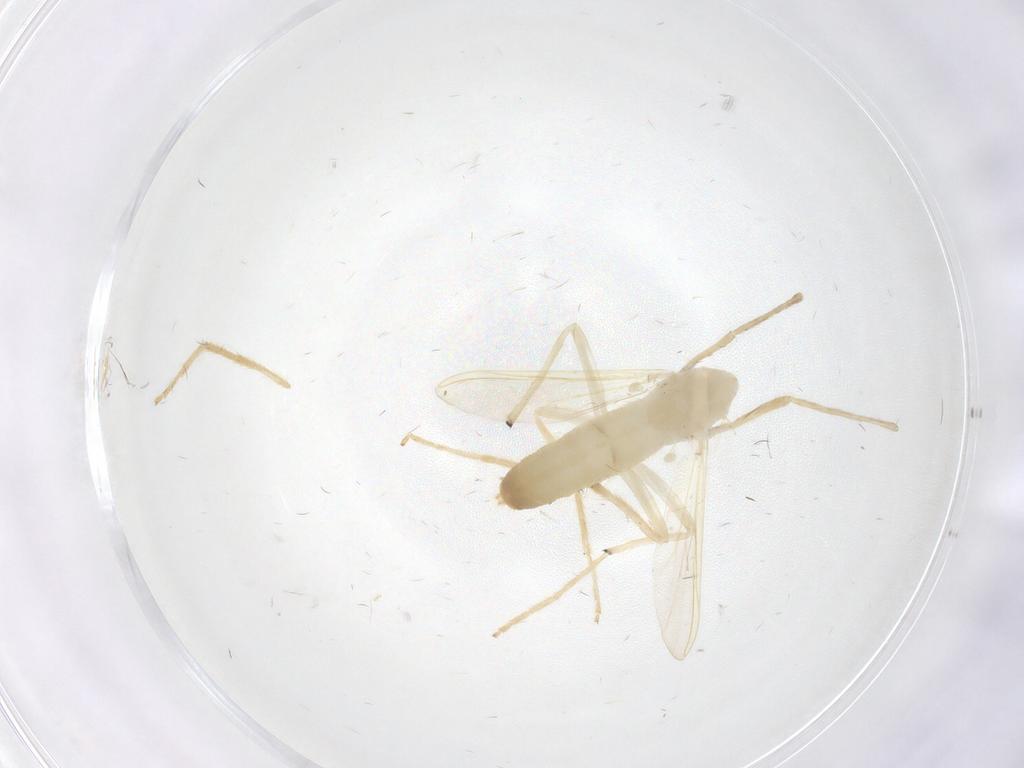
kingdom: Animalia
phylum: Arthropoda
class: Insecta
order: Diptera
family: Chironomidae
